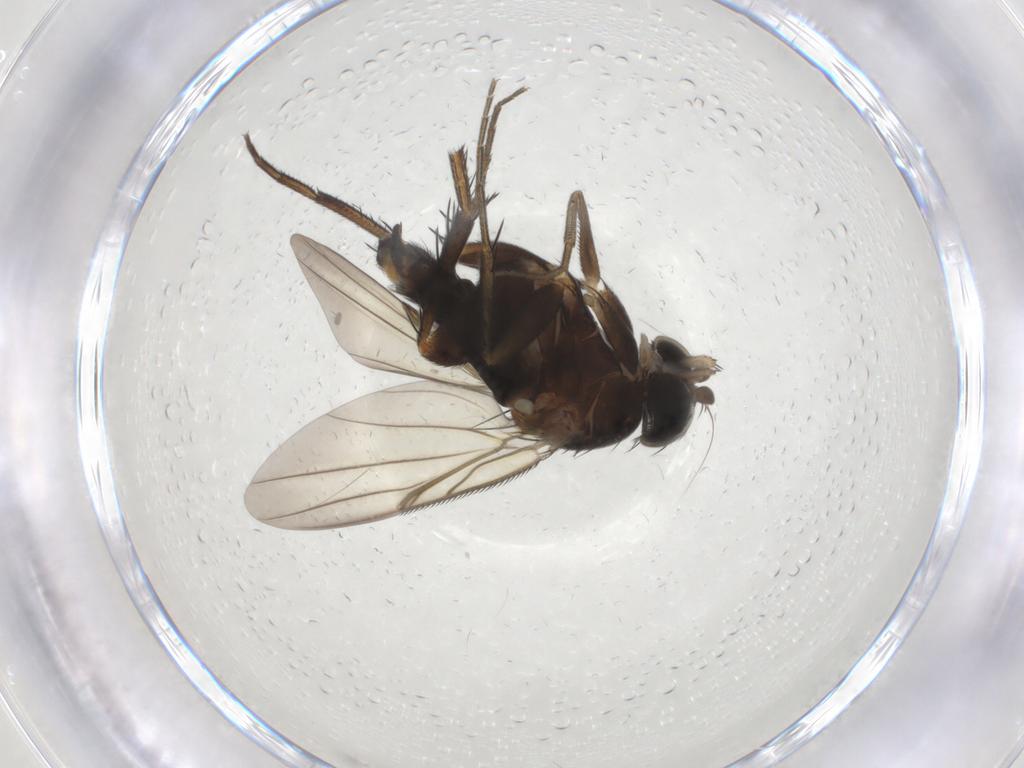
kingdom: Animalia
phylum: Arthropoda
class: Insecta
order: Diptera
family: Phoridae
